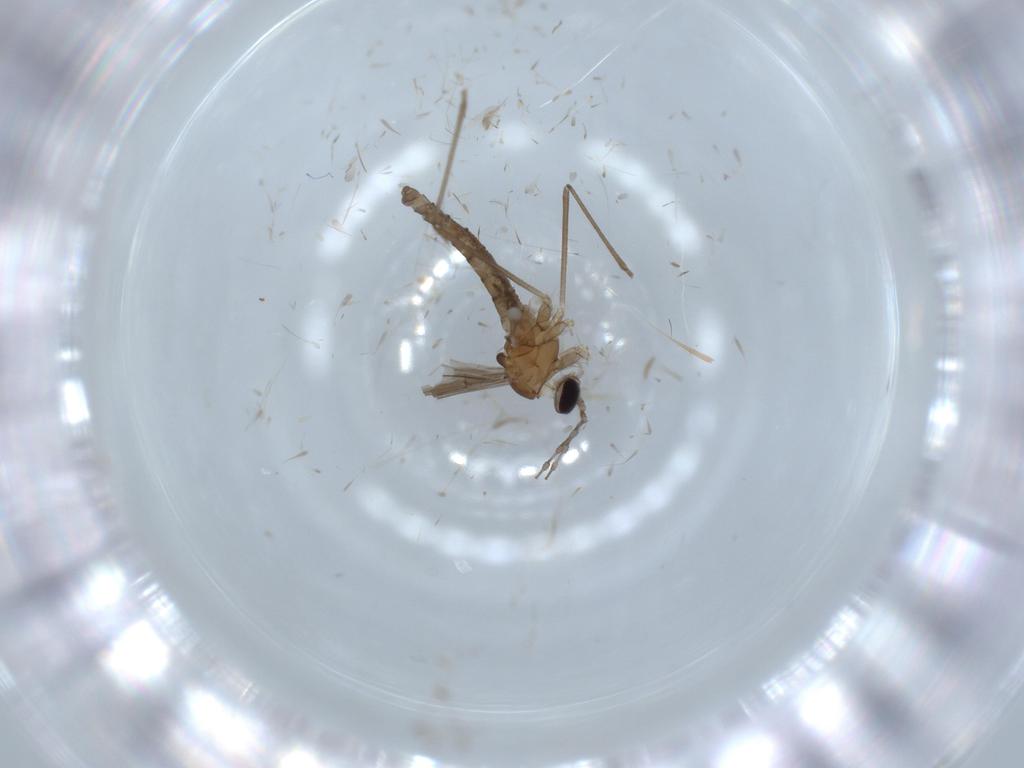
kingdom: Animalia
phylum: Arthropoda
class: Insecta
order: Diptera
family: Cecidomyiidae
